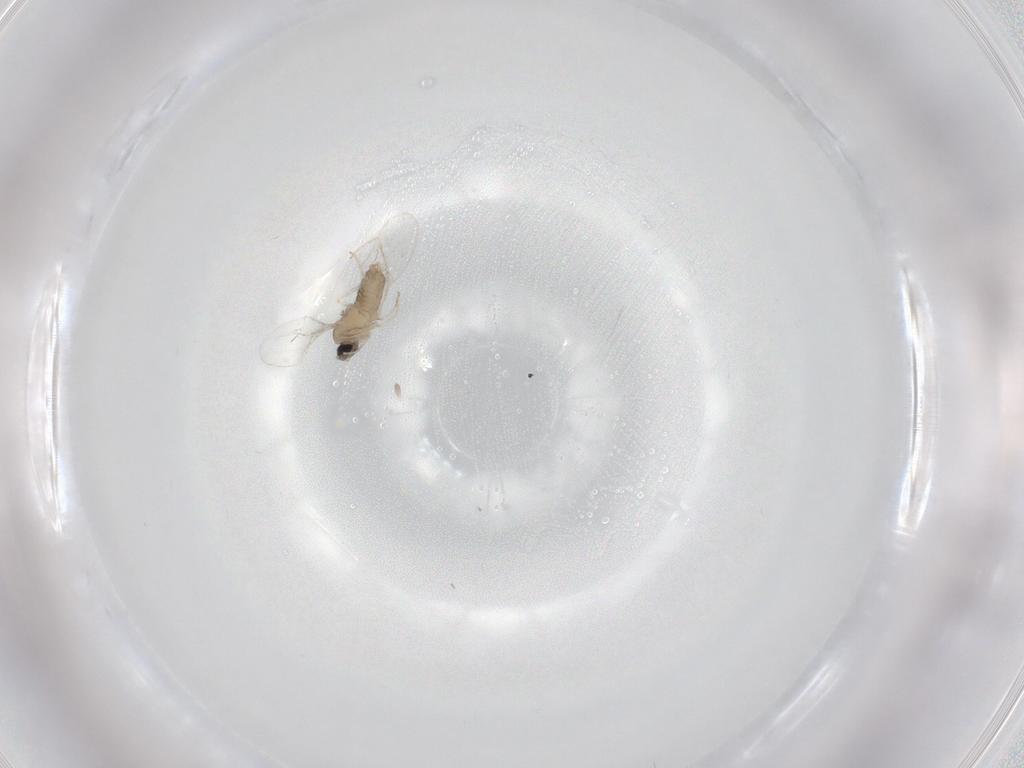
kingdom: Animalia
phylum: Arthropoda
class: Insecta
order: Diptera
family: Cecidomyiidae
